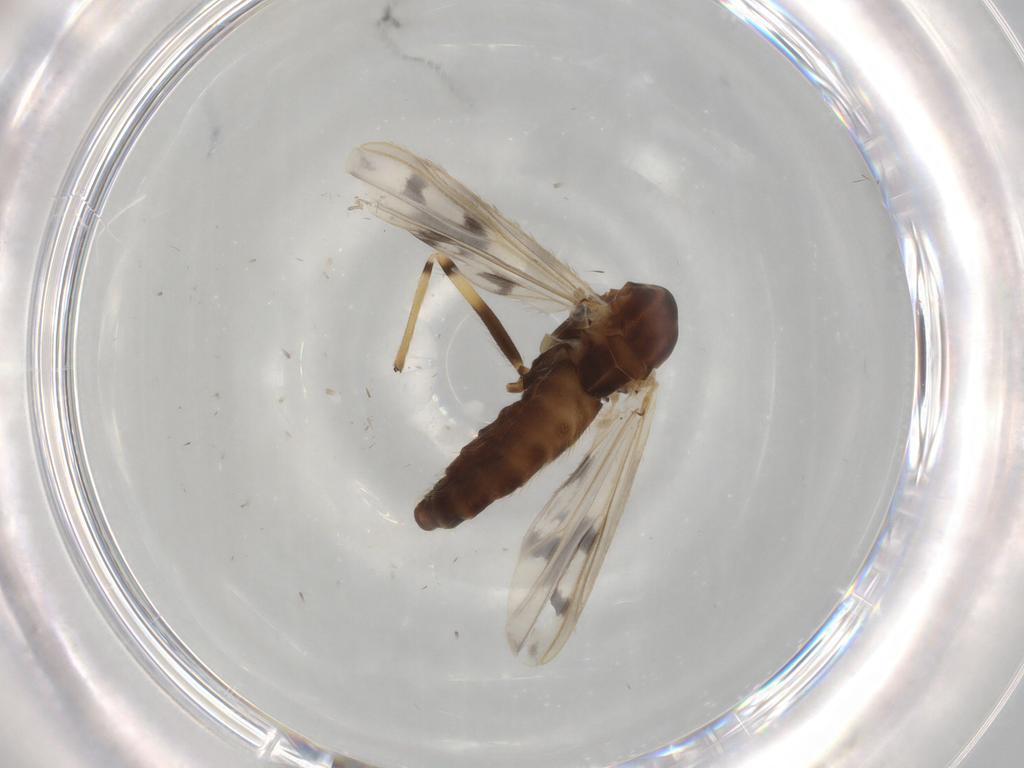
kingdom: Animalia
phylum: Arthropoda
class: Insecta
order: Diptera
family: Chironomidae
